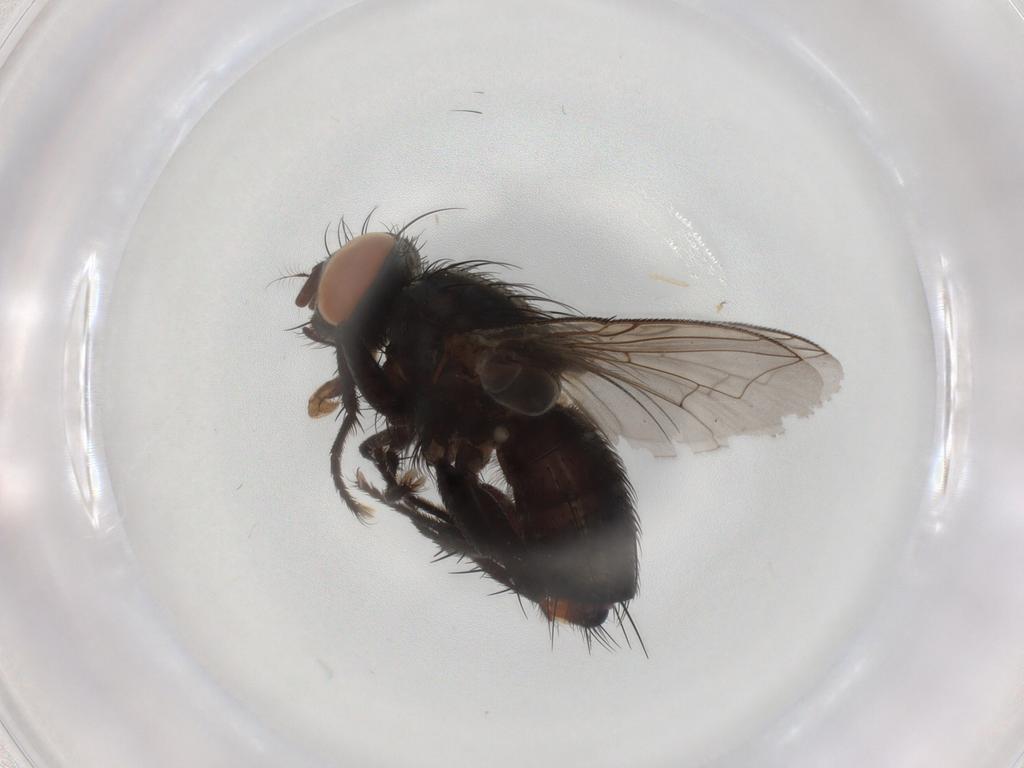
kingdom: Animalia
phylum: Arthropoda
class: Insecta
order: Diptera
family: Sarcophagidae
